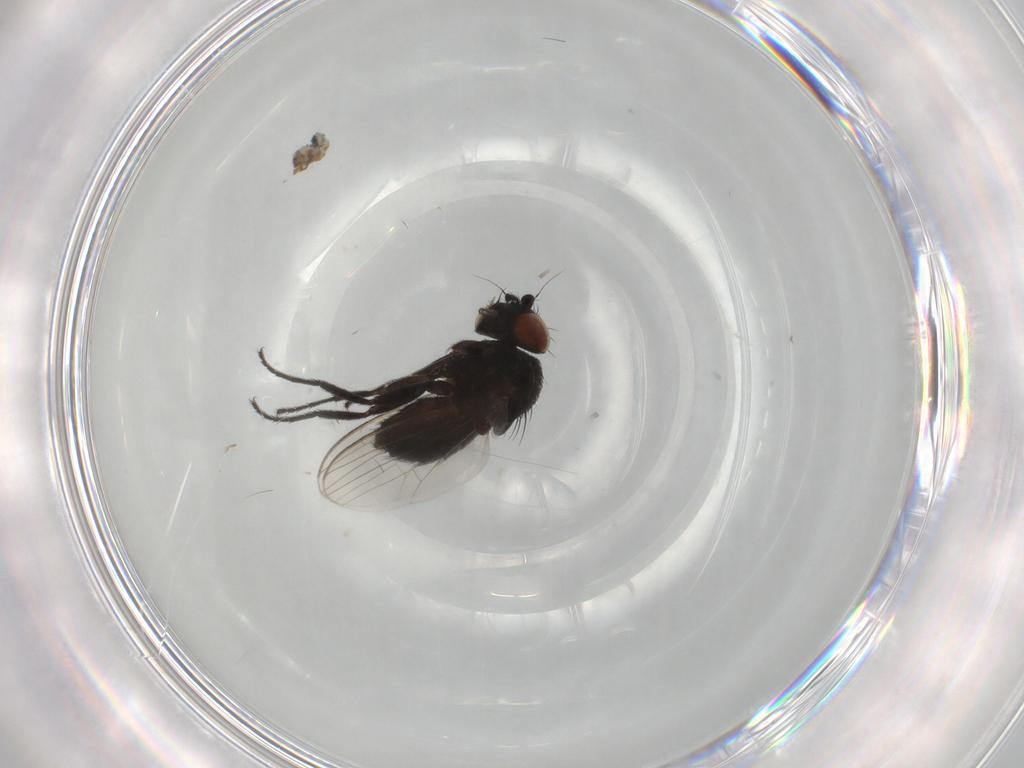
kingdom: Animalia
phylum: Arthropoda
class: Insecta
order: Diptera
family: Milichiidae
